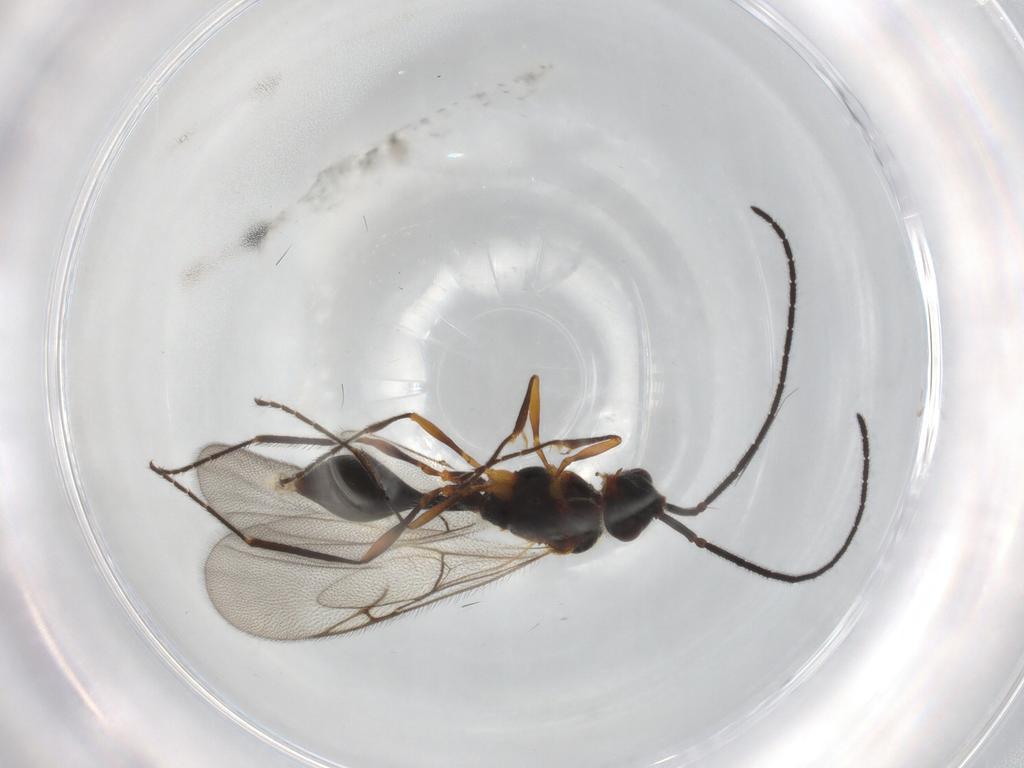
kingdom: Animalia
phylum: Arthropoda
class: Insecta
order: Hymenoptera
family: Diapriidae
